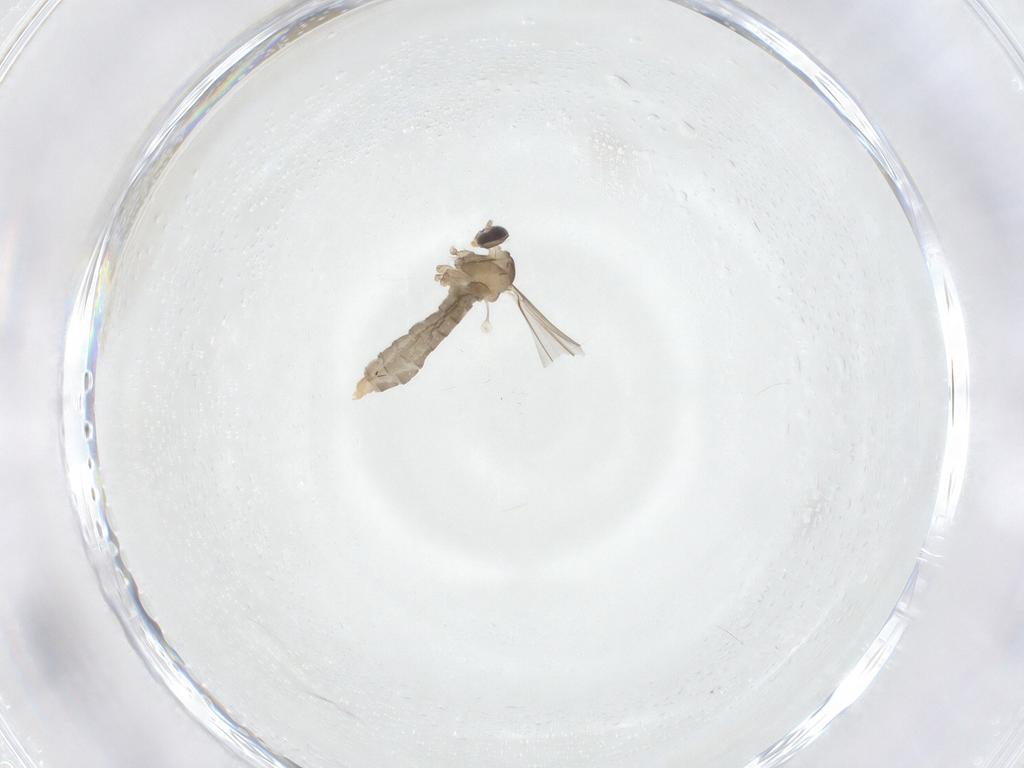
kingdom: Animalia
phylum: Arthropoda
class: Insecta
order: Diptera
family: Cecidomyiidae
